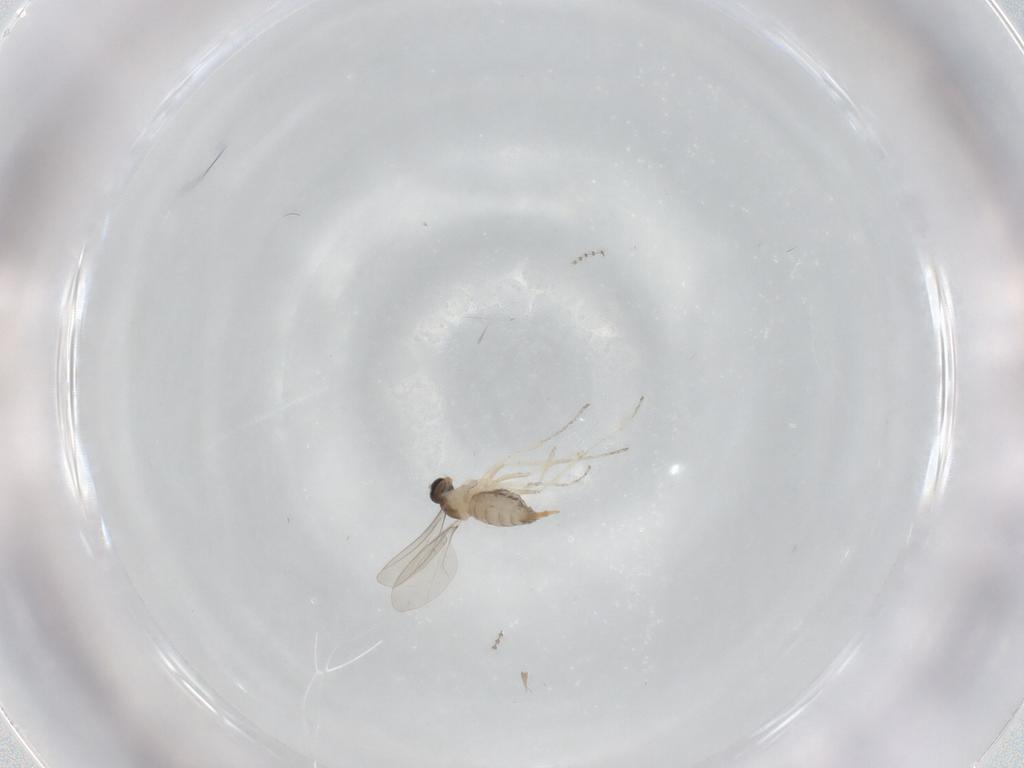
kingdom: Animalia
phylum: Arthropoda
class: Insecta
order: Diptera
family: Cecidomyiidae
